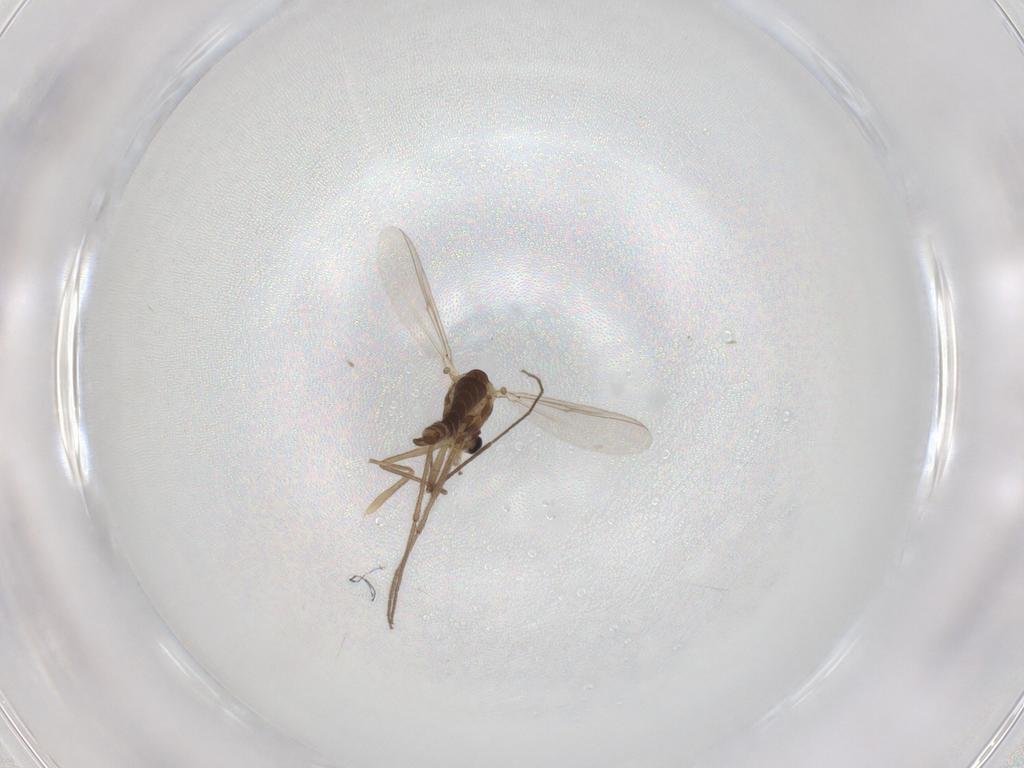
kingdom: Animalia
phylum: Arthropoda
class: Insecta
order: Diptera
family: Chironomidae
